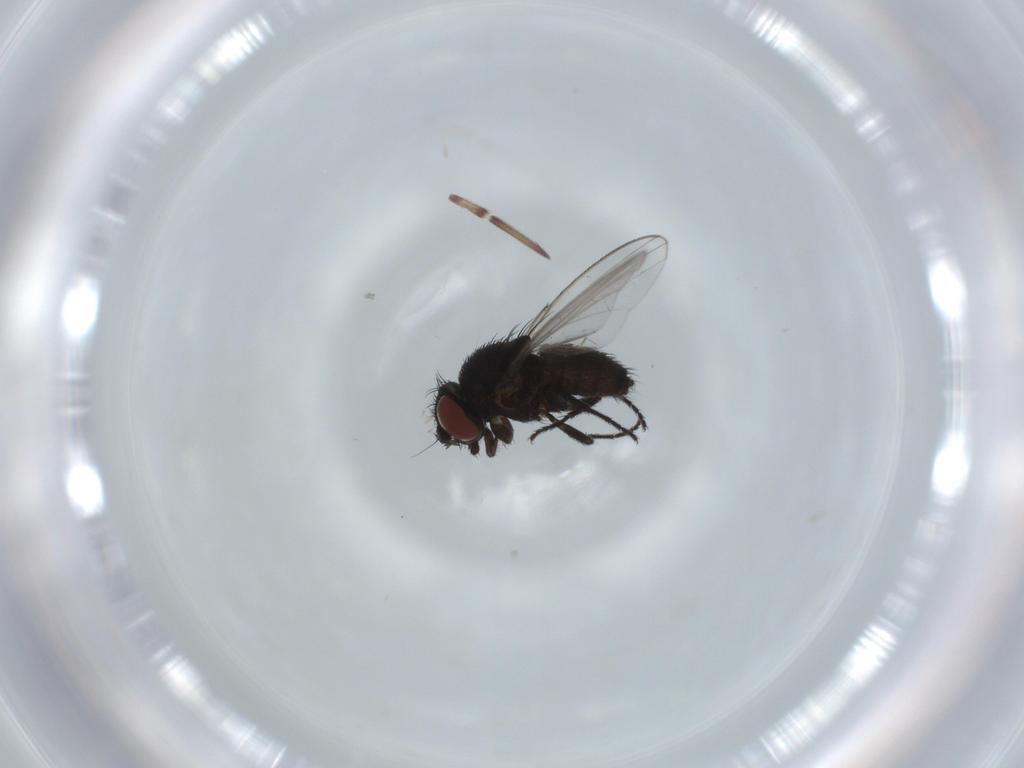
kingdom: Animalia
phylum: Arthropoda
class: Insecta
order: Diptera
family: Milichiidae
